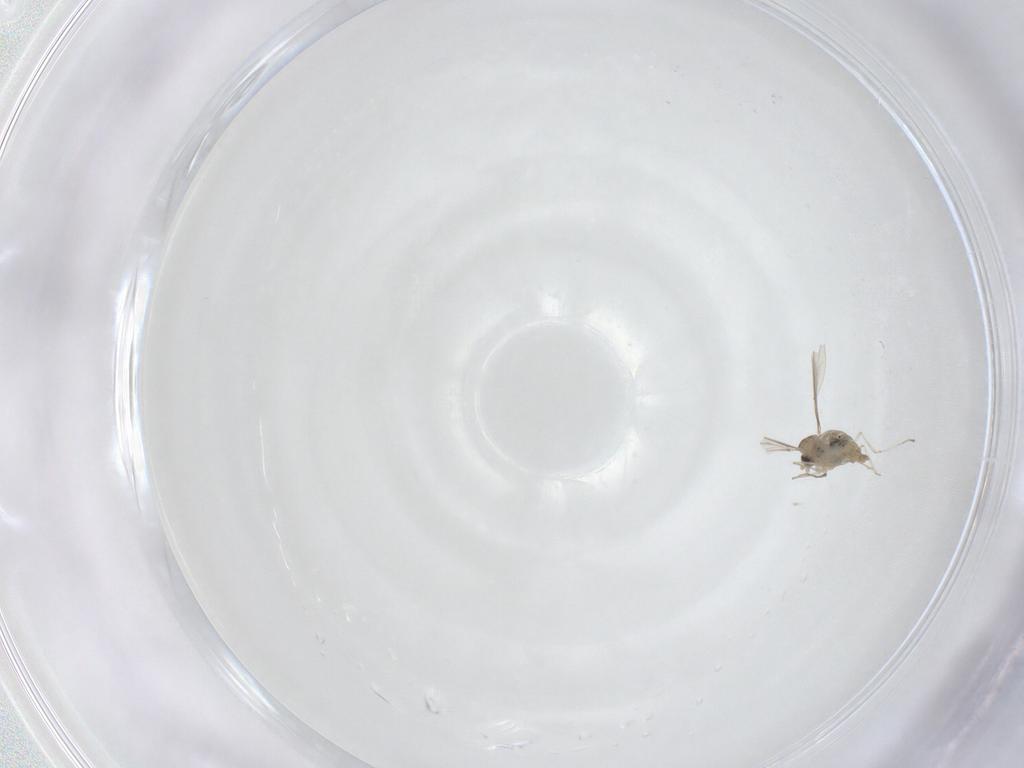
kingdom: Animalia
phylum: Arthropoda
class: Insecta
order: Diptera
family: Cecidomyiidae
